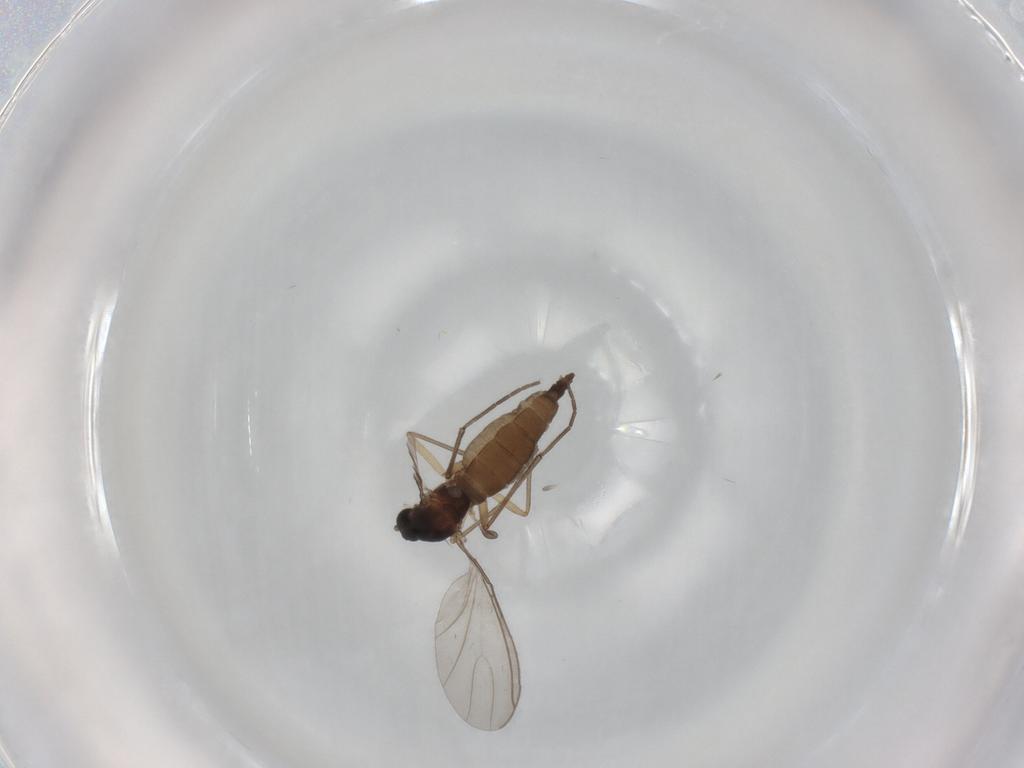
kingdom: Animalia
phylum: Arthropoda
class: Insecta
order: Diptera
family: Sciaridae
